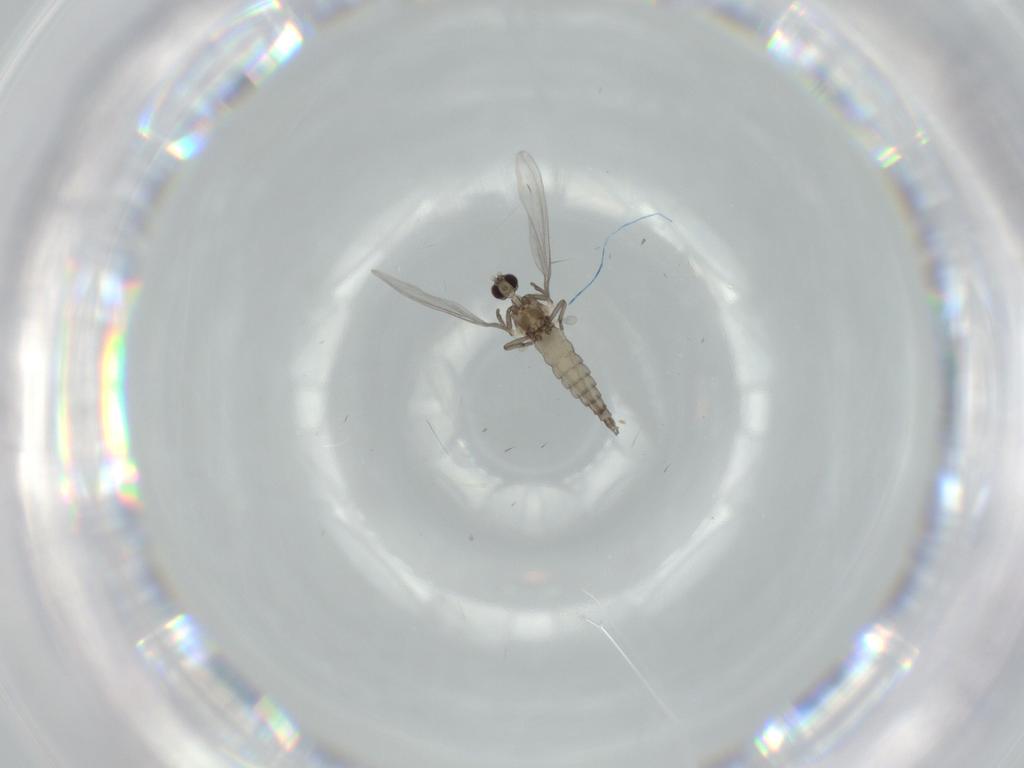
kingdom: Animalia
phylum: Arthropoda
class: Insecta
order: Diptera
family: Cecidomyiidae
